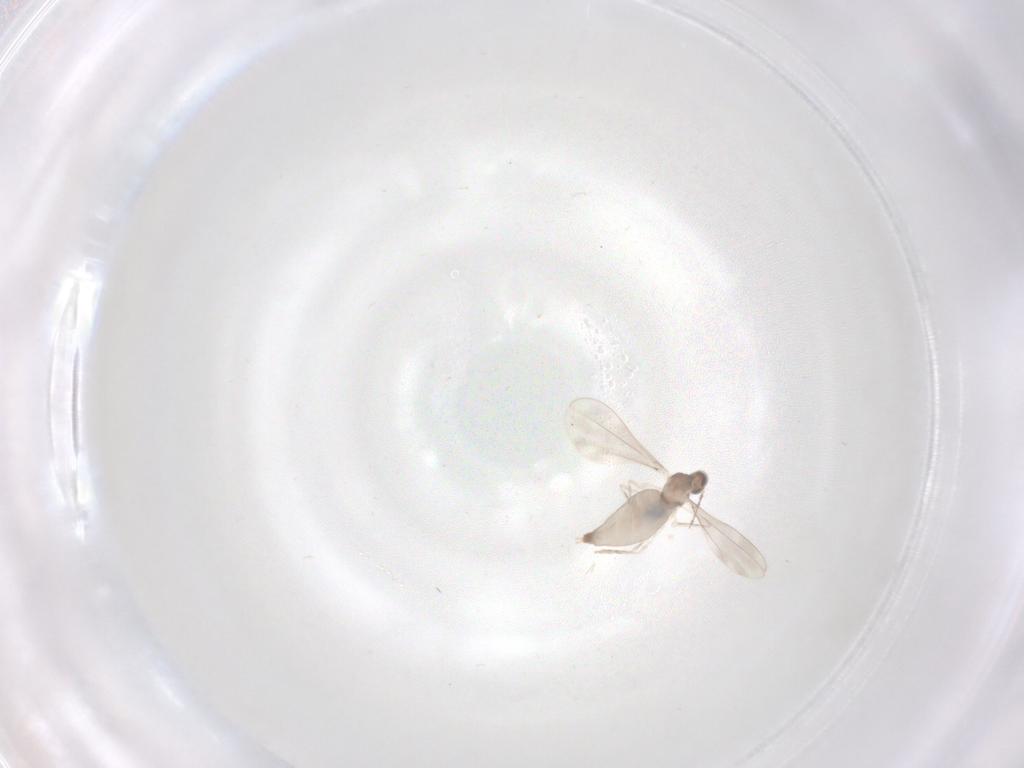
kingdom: Animalia
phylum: Arthropoda
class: Insecta
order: Diptera
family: Cecidomyiidae
